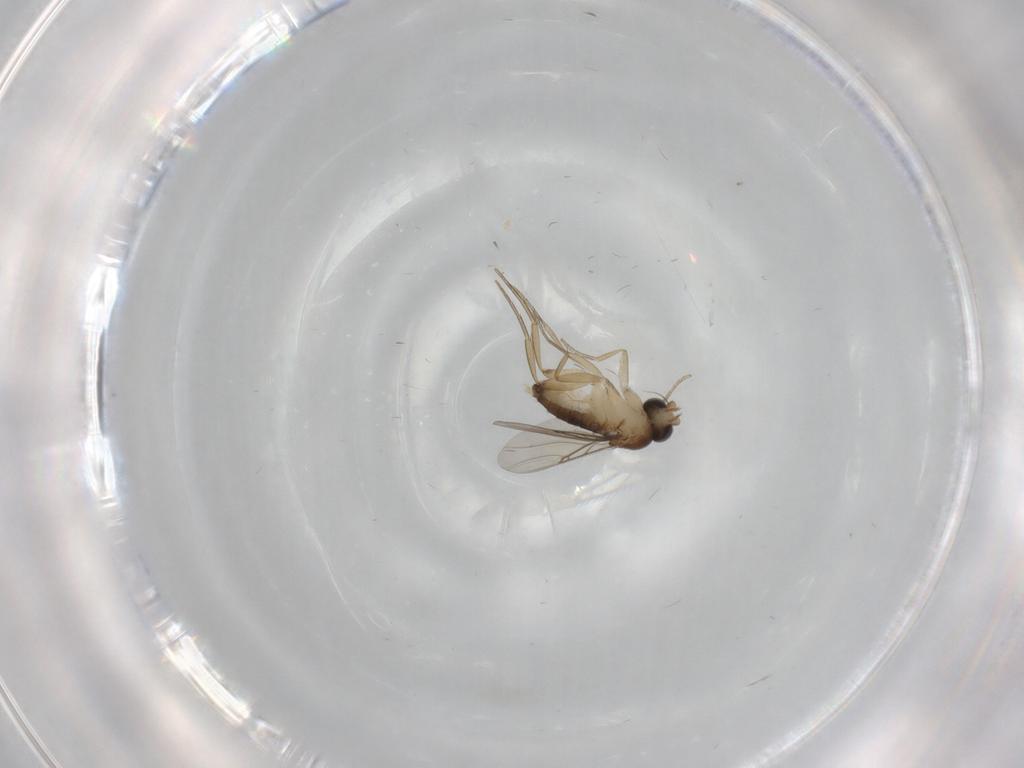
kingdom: Animalia
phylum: Arthropoda
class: Insecta
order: Diptera
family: Phoridae
